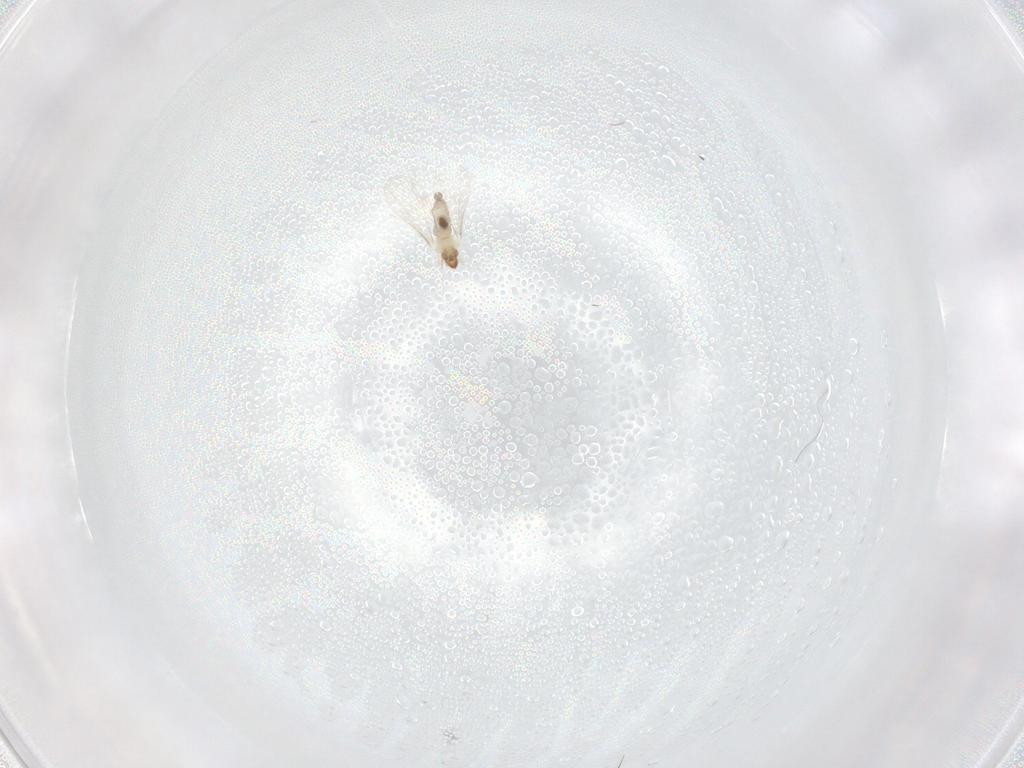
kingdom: Animalia
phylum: Arthropoda
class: Insecta
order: Diptera
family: Cecidomyiidae
